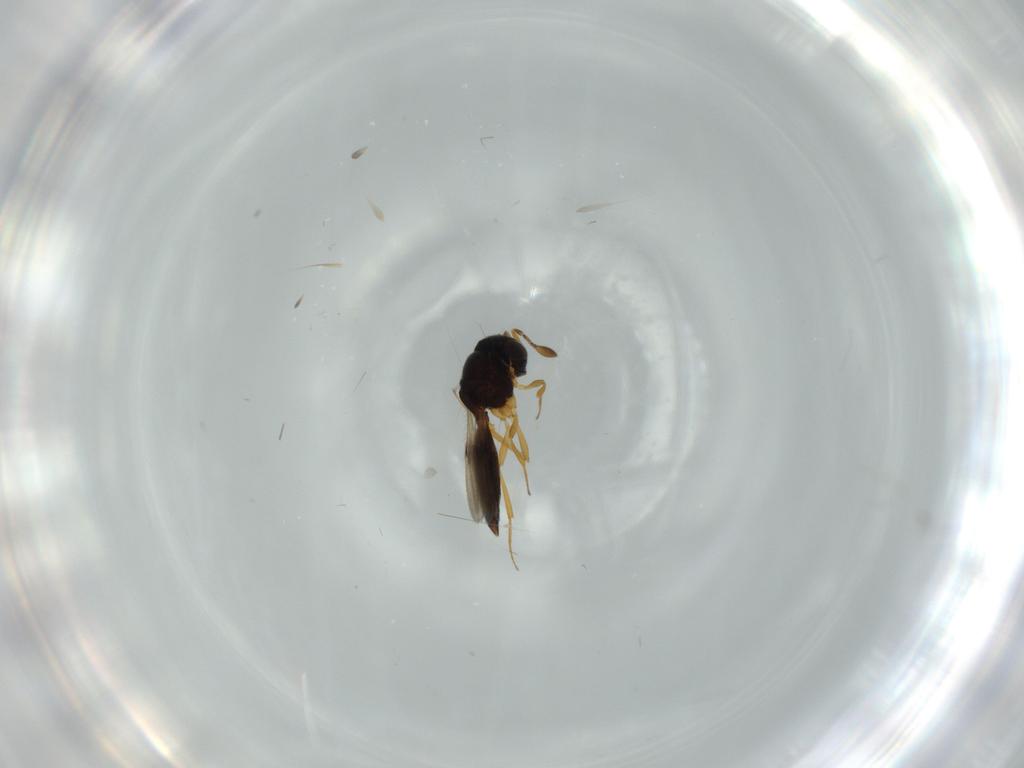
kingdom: Animalia
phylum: Arthropoda
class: Insecta
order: Hymenoptera
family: Scelionidae
